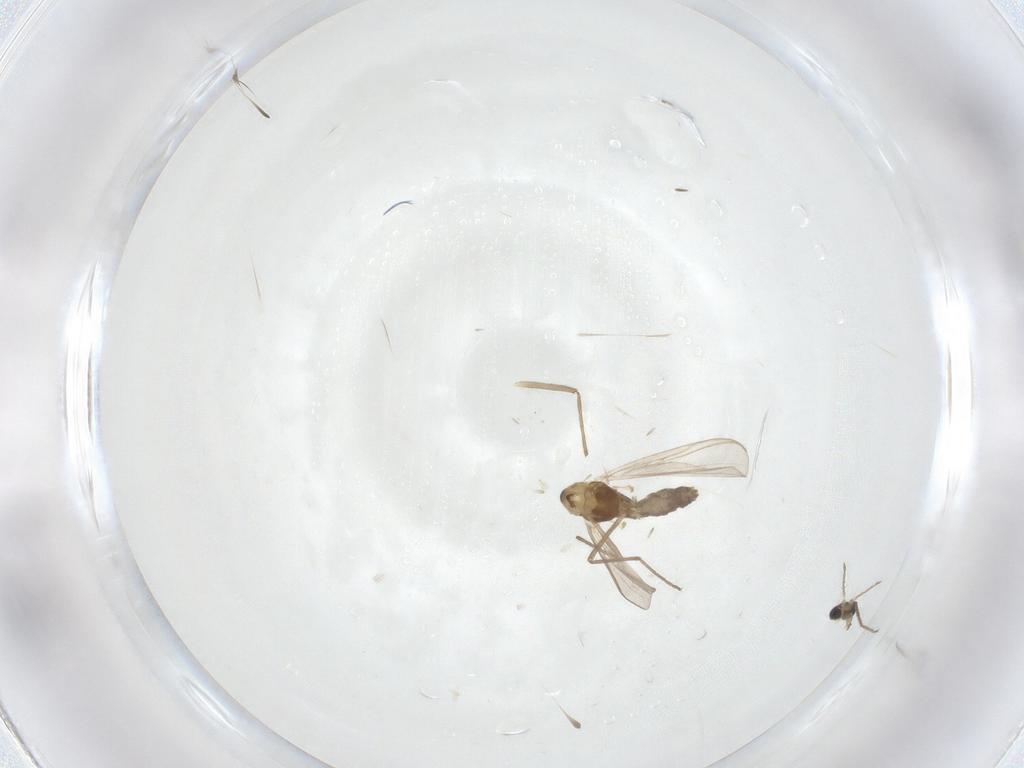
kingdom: Animalia
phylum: Arthropoda
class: Insecta
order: Diptera
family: Chironomidae
